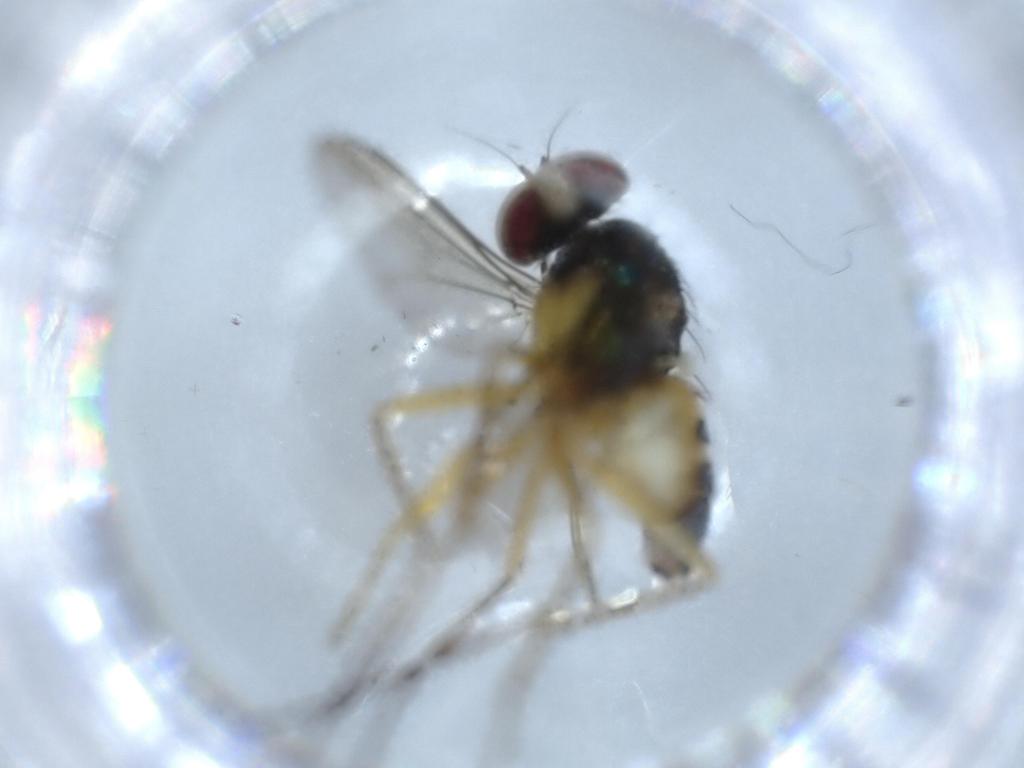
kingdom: Animalia
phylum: Arthropoda
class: Insecta
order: Diptera
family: Dolichopodidae
